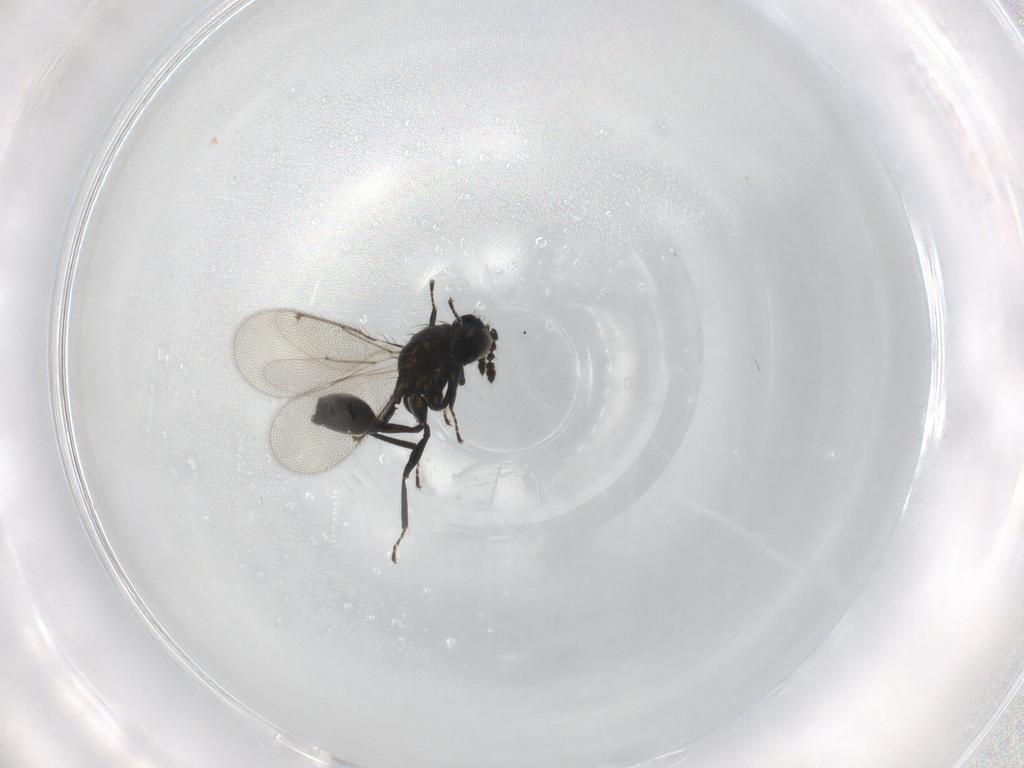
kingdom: Animalia
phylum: Arthropoda
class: Insecta
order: Hymenoptera
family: Eulophidae
